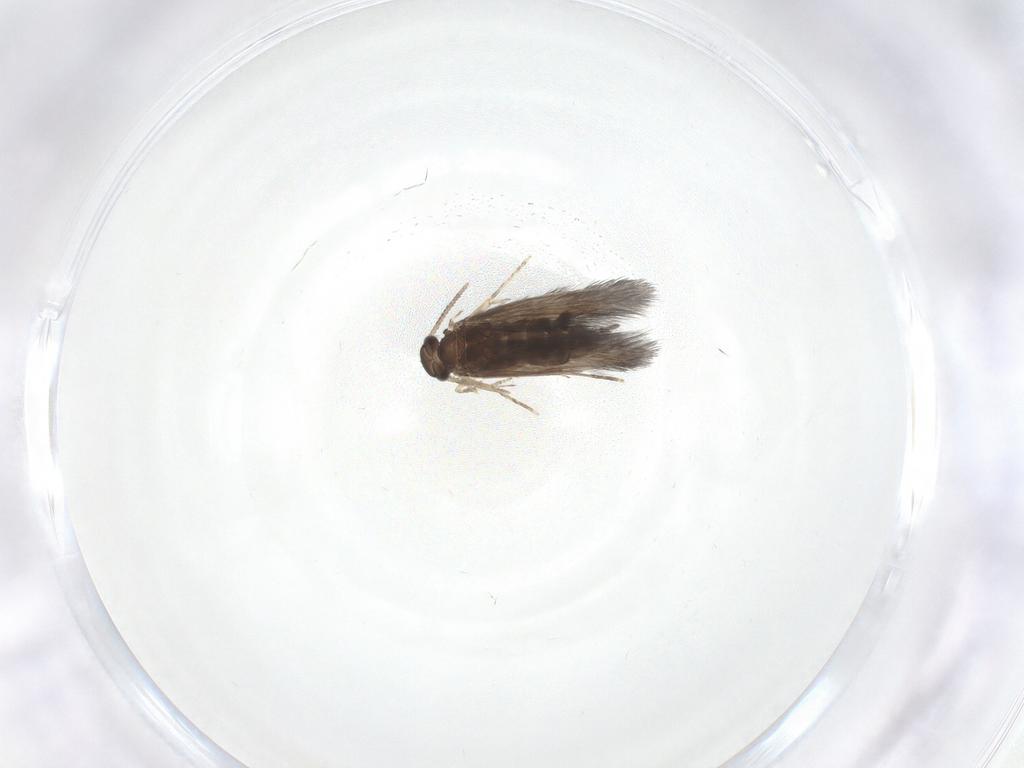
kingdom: Animalia
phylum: Arthropoda
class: Insecta
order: Trichoptera
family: Hydroptilidae
